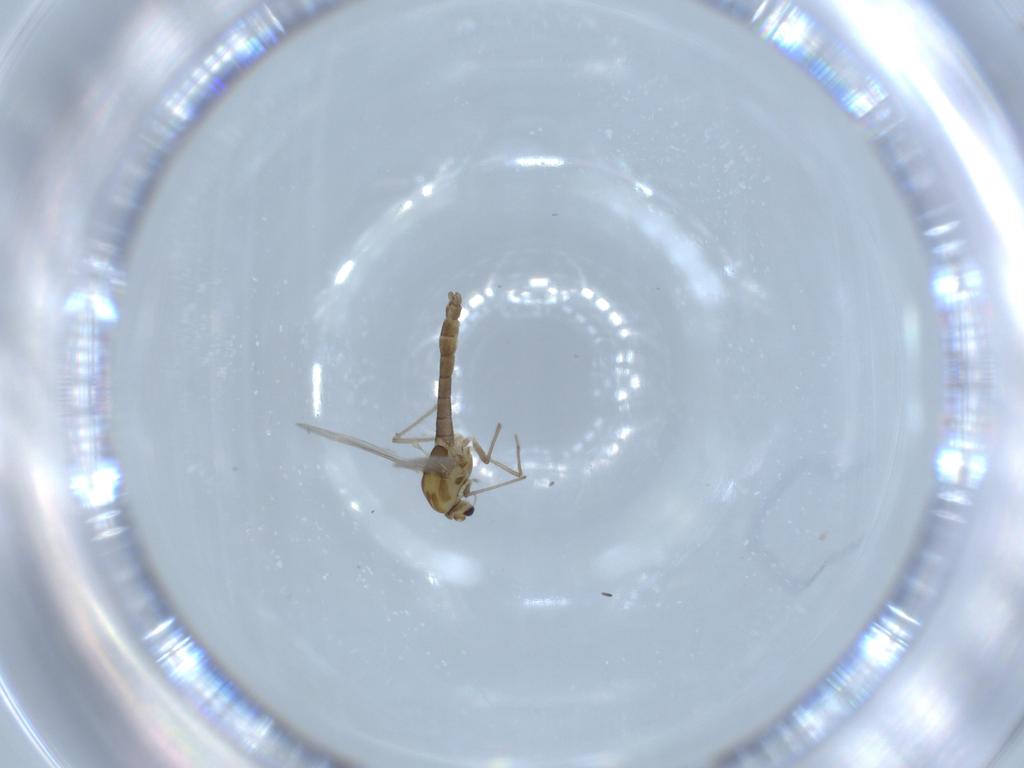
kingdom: Animalia
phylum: Arthropoda
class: Insecta
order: Diptera
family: Chironomidae
